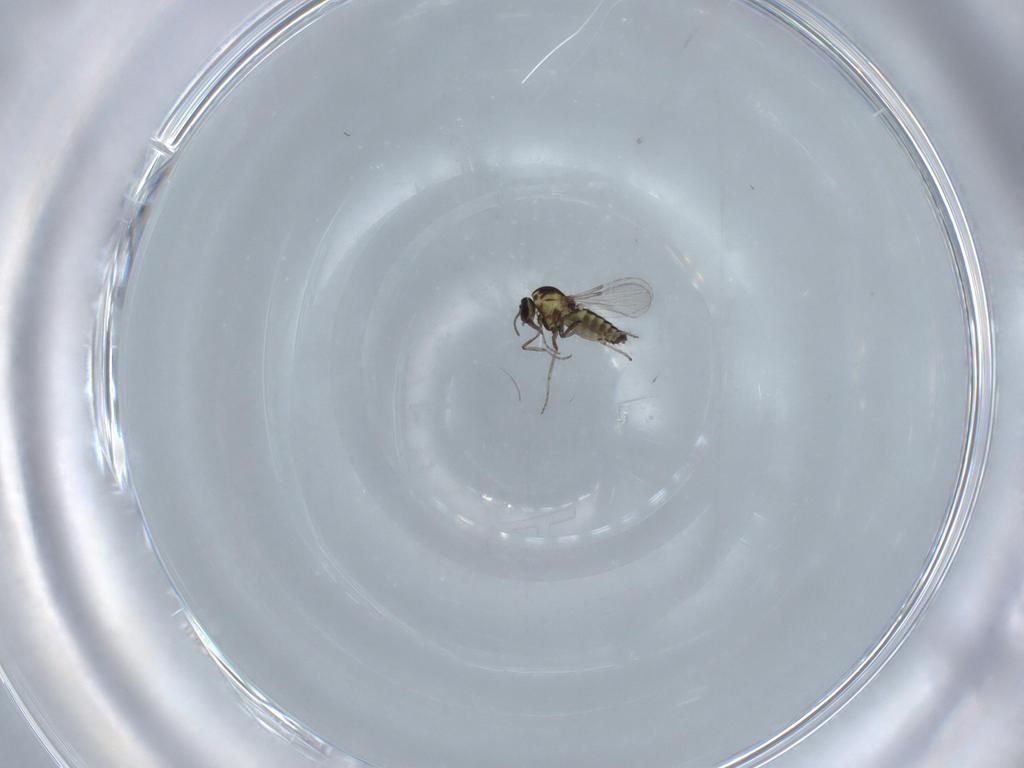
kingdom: Animalia
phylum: Arthropoda
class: Insecta
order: Diptera
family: Ceratopogonidae
